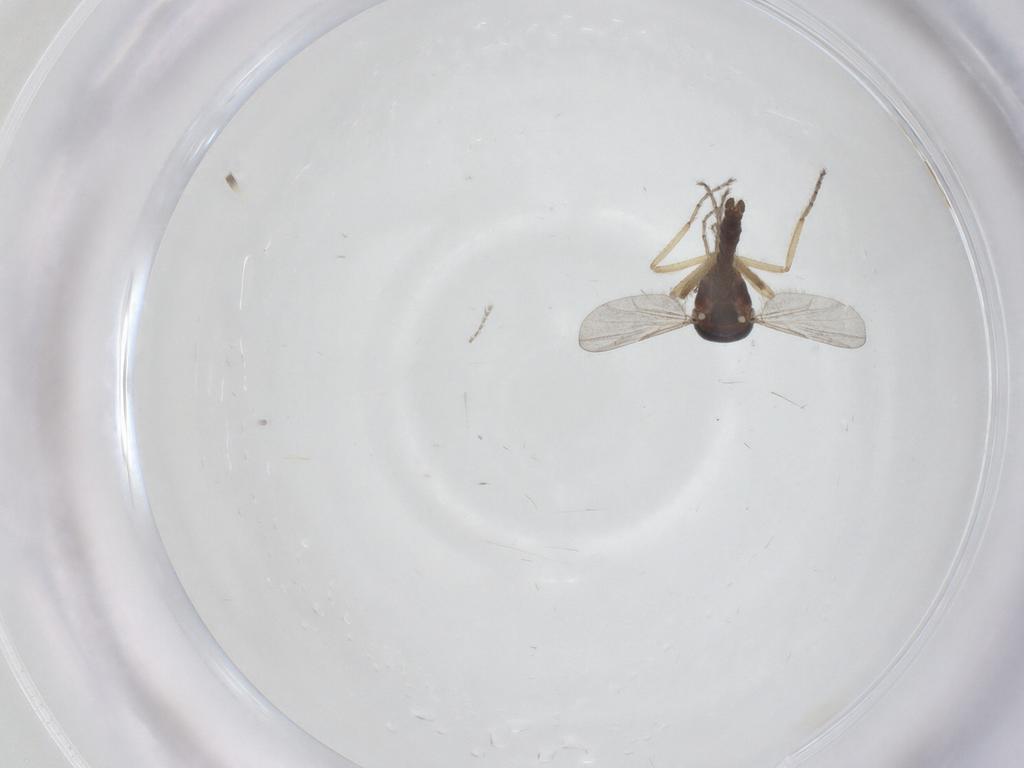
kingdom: Animalia
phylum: Arthropoda
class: Insecta
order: Diptera
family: Ceratopogonidae
